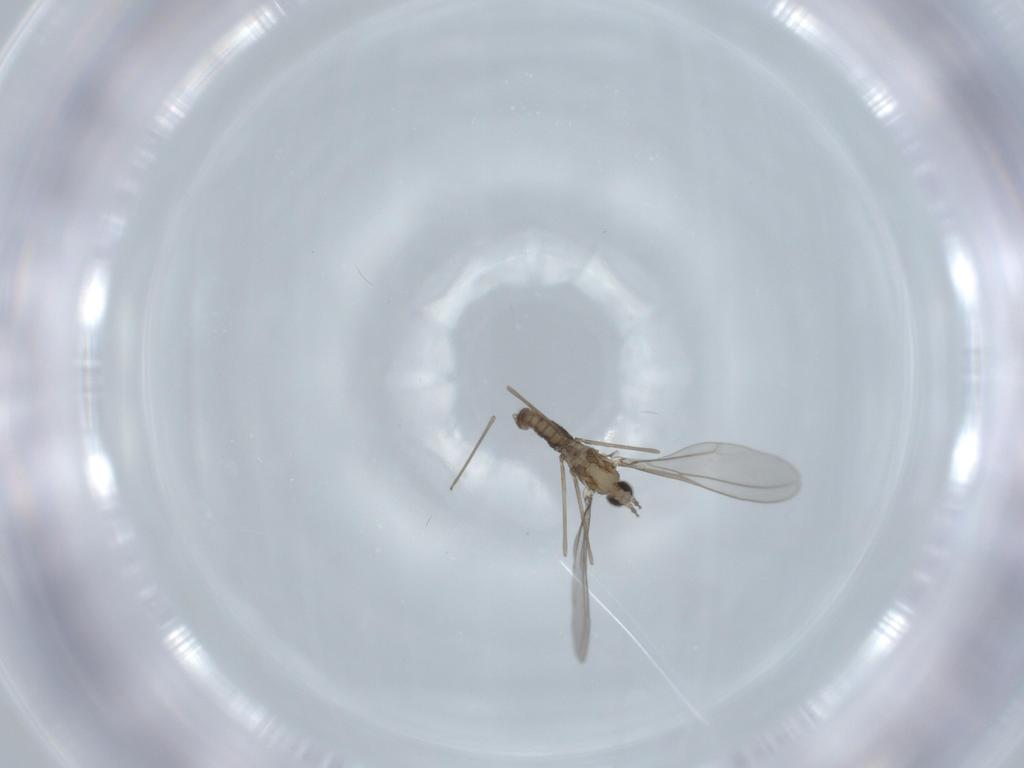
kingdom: Animalia
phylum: Arthropoda
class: Insecta
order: Diptera
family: Cecidomyiidae
